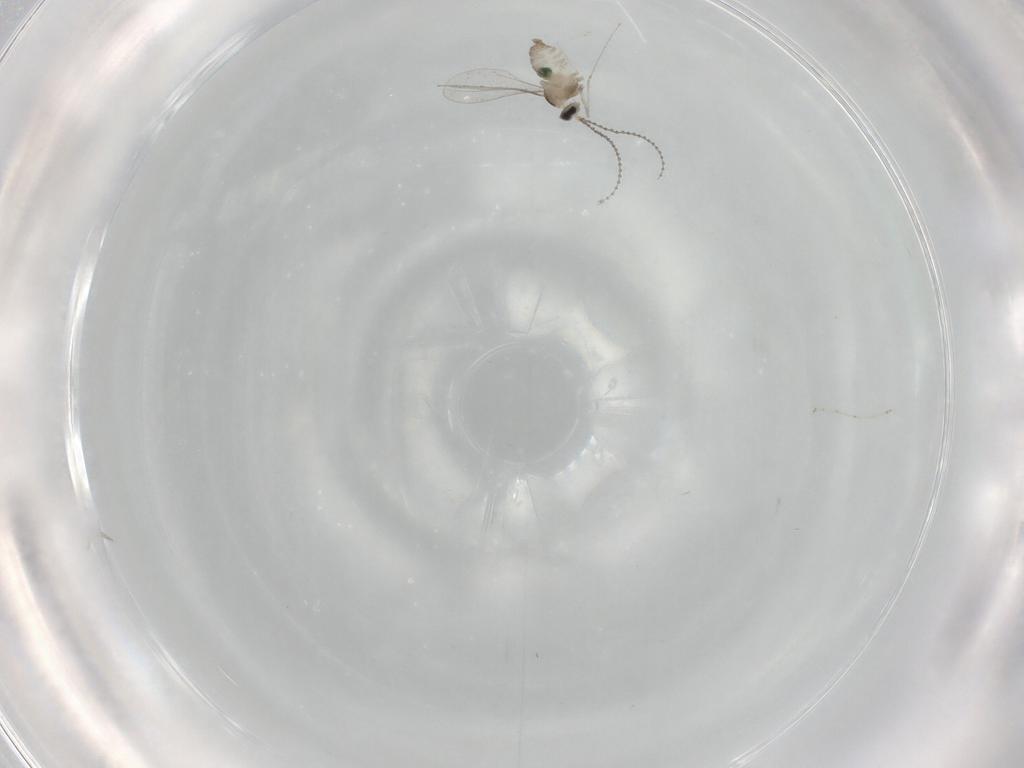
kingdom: Animalia
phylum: Arthropoda
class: Insecta
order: Diptera
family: Cecidomyiidae
